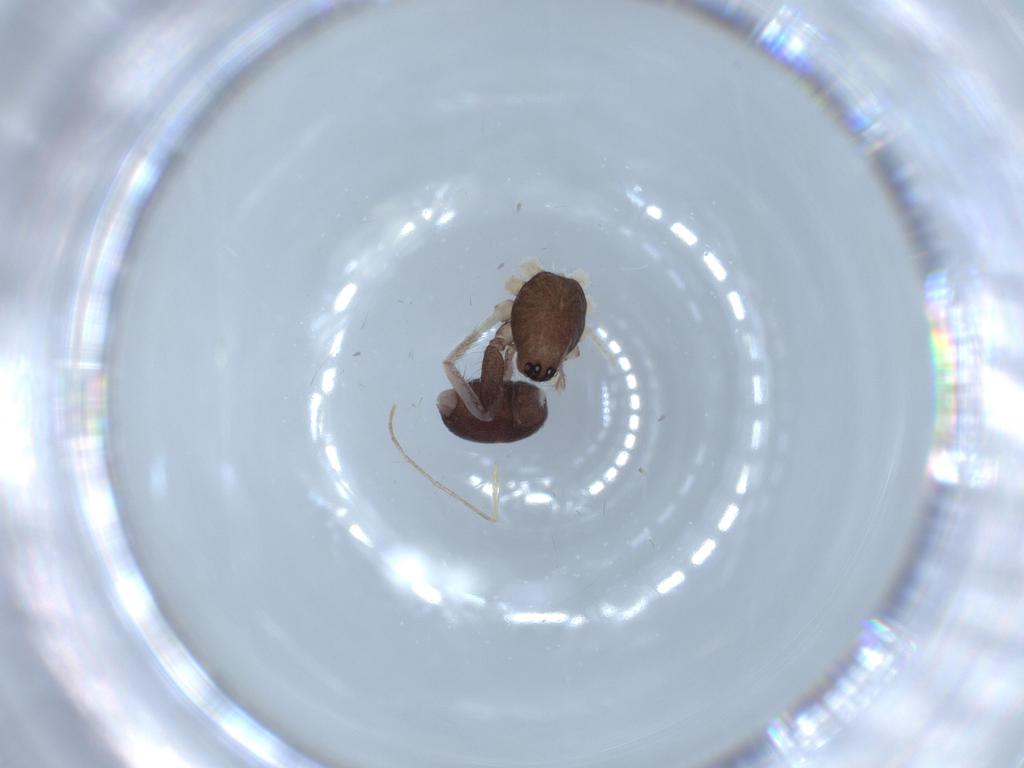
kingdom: Animalia
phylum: Arthropoda
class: Arachnida
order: Araneae
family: Corinnidae
